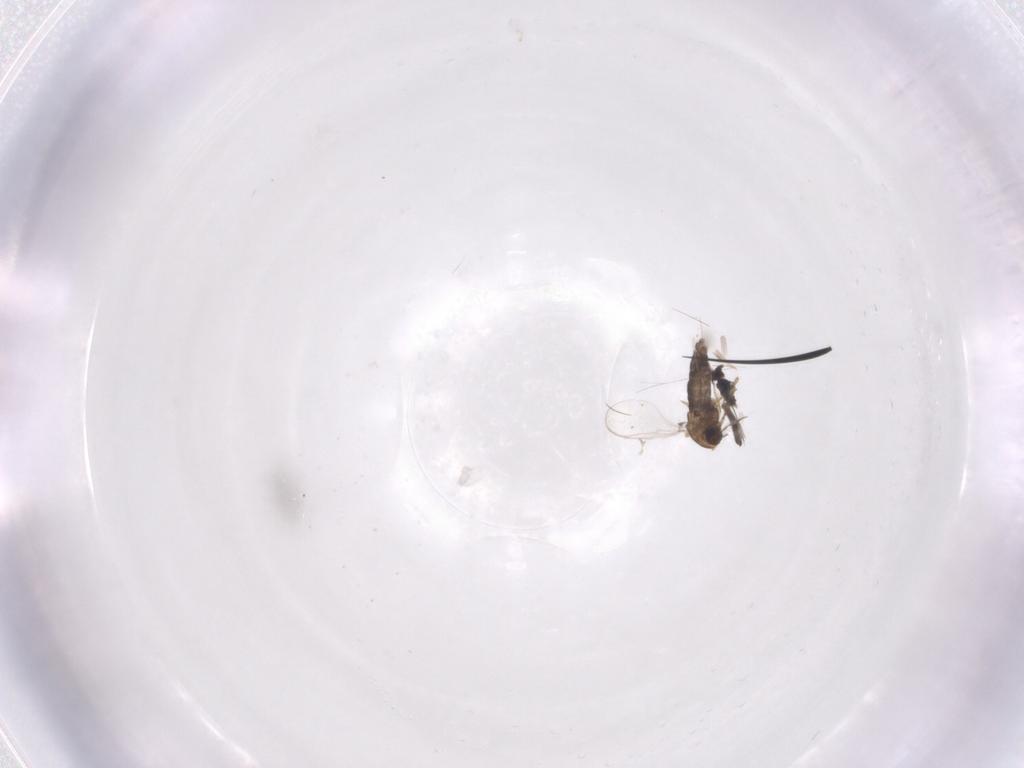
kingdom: Animalia
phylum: Arthropoda
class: Insecta
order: Diptera
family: Chironomidae
